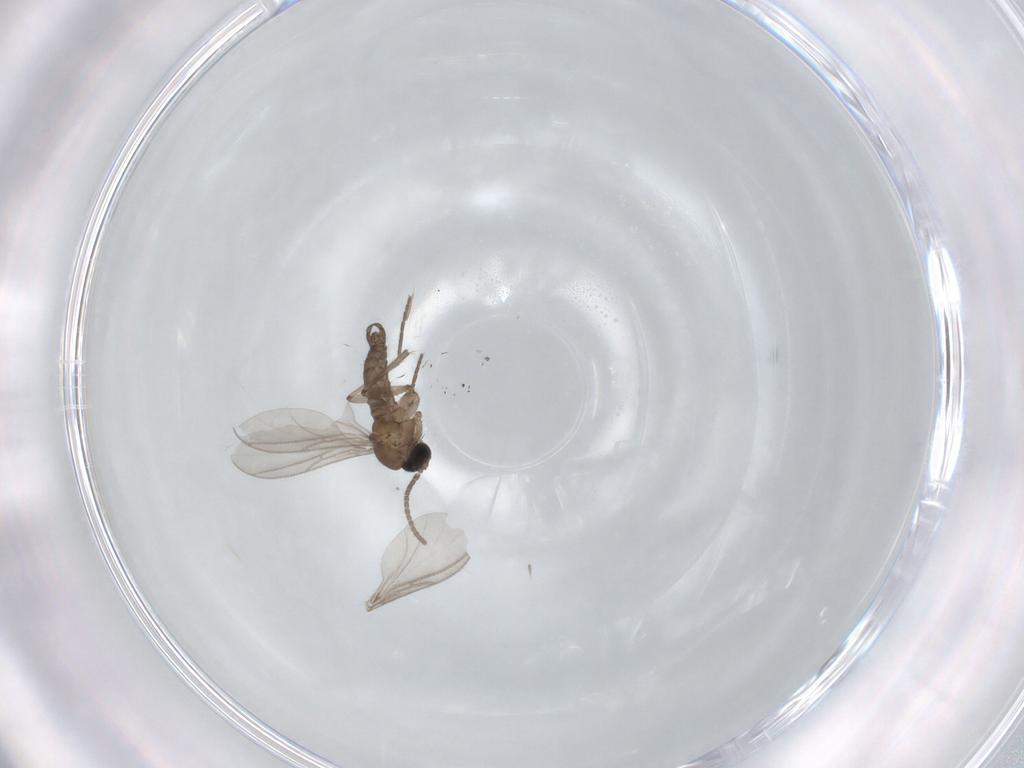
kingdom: Animalia
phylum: Arthropoda
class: Insecta
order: Diptera
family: Sciaridae
